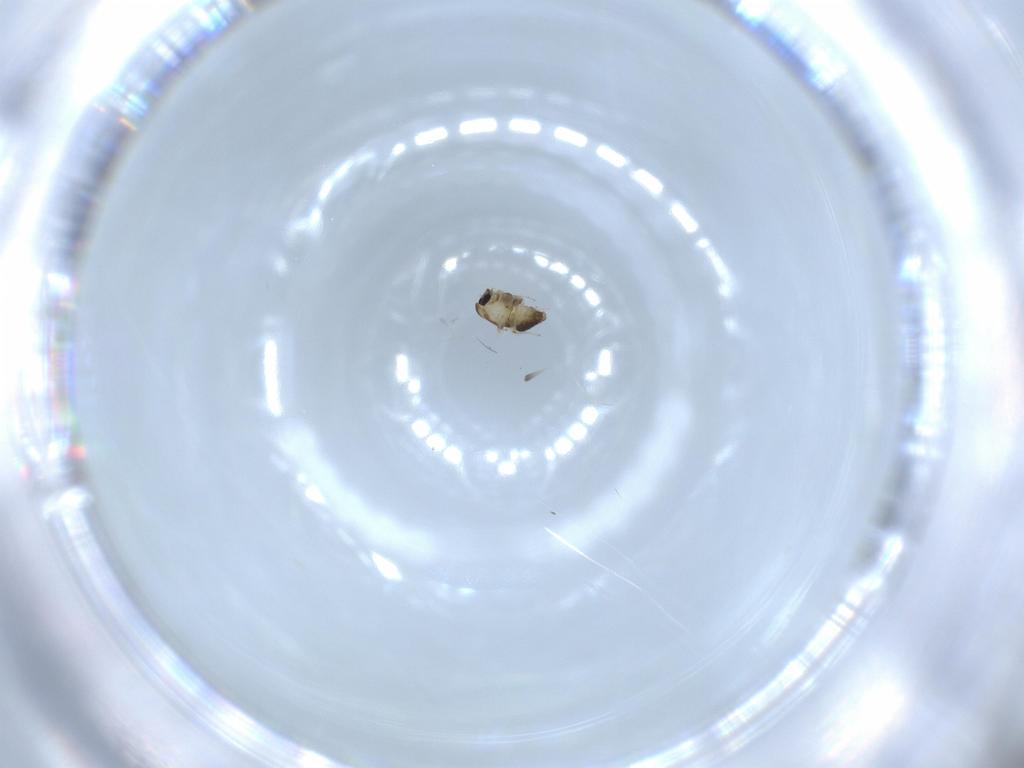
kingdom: Animalia
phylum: Arthropoda
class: Insecta
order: Diptera
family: Chironomidae
